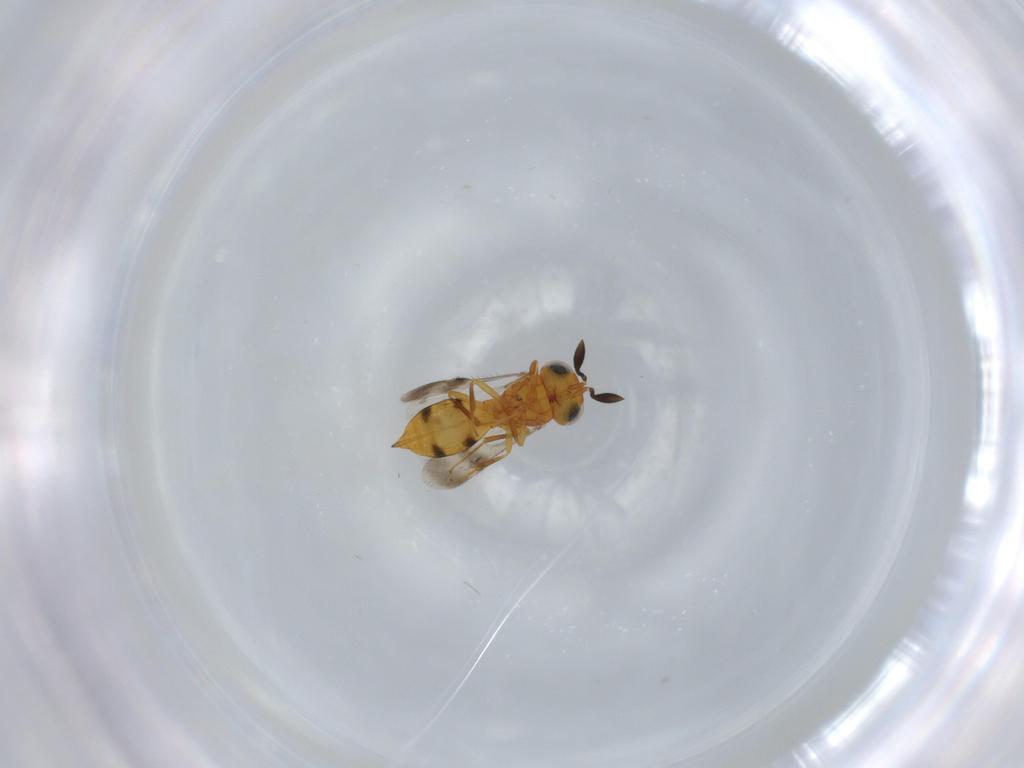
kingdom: Animalia
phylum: Arthropoda
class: Insecta
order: Hymenoptera
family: Scelionidae
